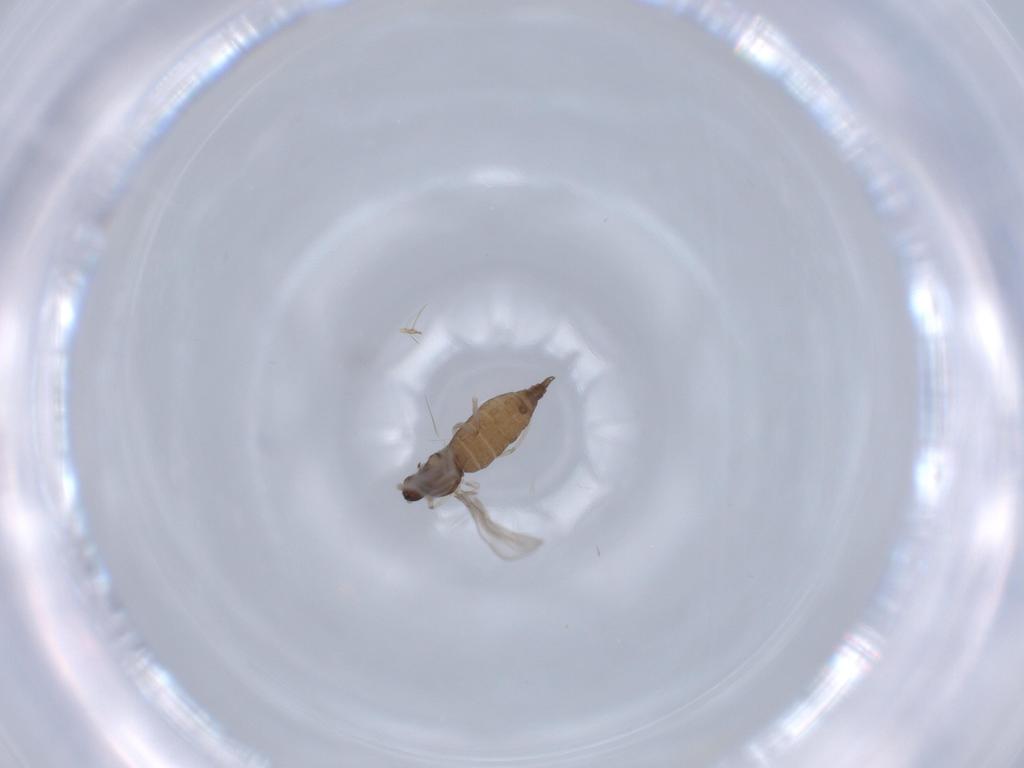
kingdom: Animalia
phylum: Arthropoda
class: Insecta
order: Diptera
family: Cecidomyiidae
